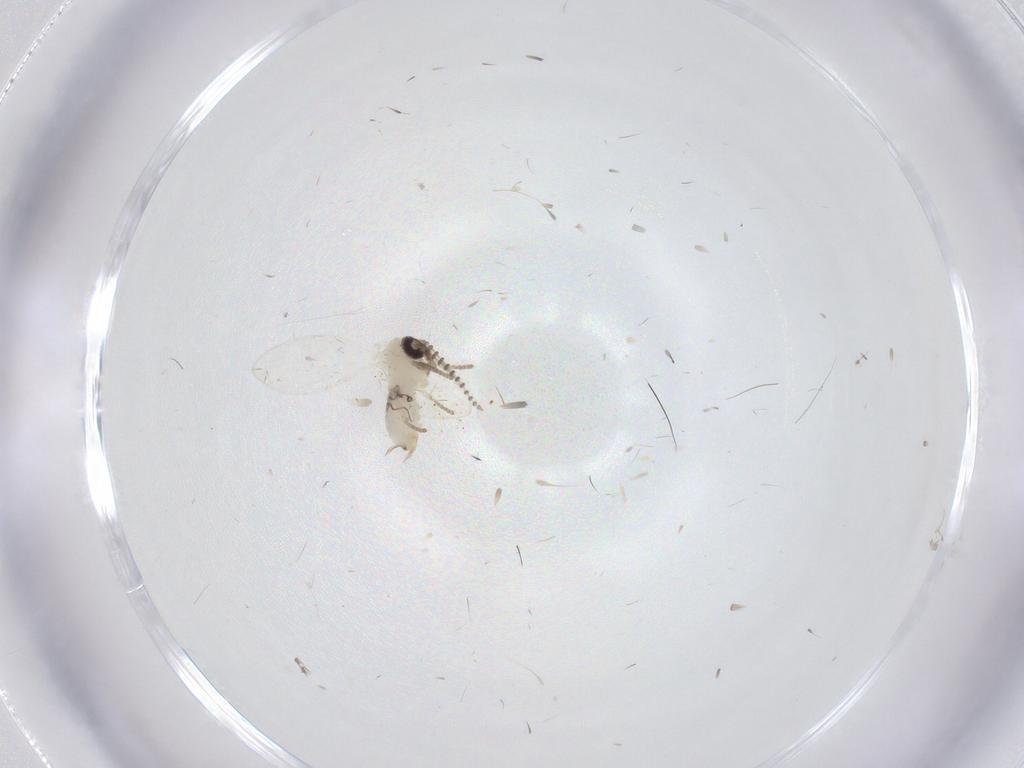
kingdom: Animalia
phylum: Arthropoda
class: Insecta
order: Diptera
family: Cecidomyiidae
